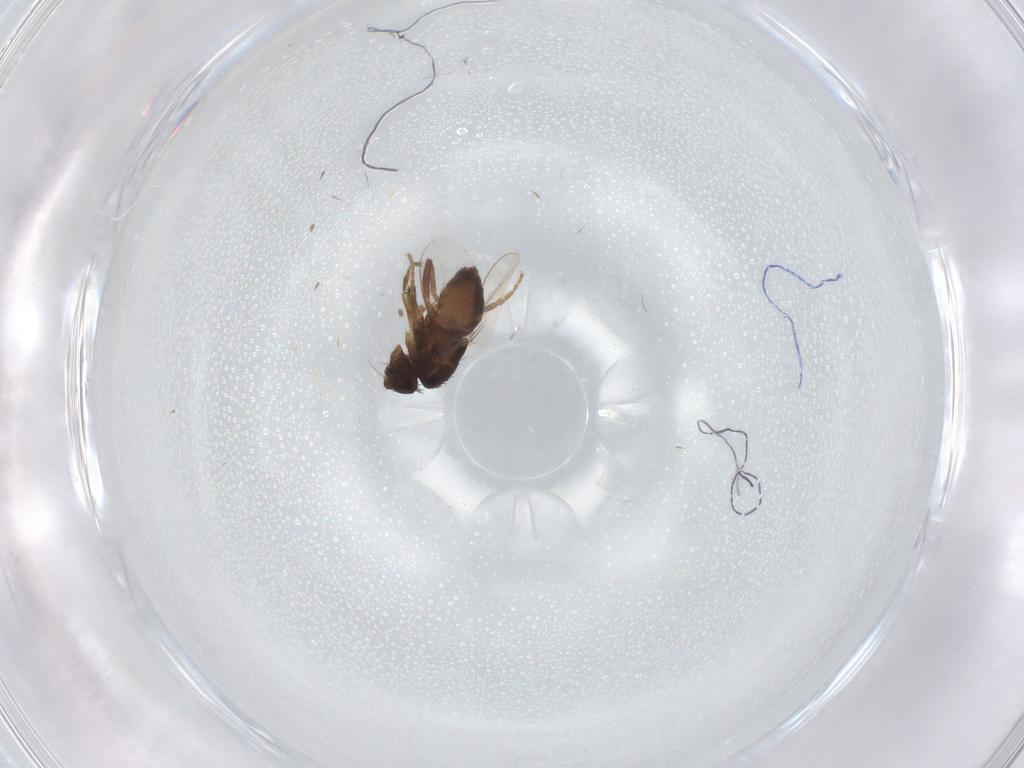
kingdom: Animalia
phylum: Arthropoda
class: Insecta
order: Diptera
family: Sphaeroceridae
